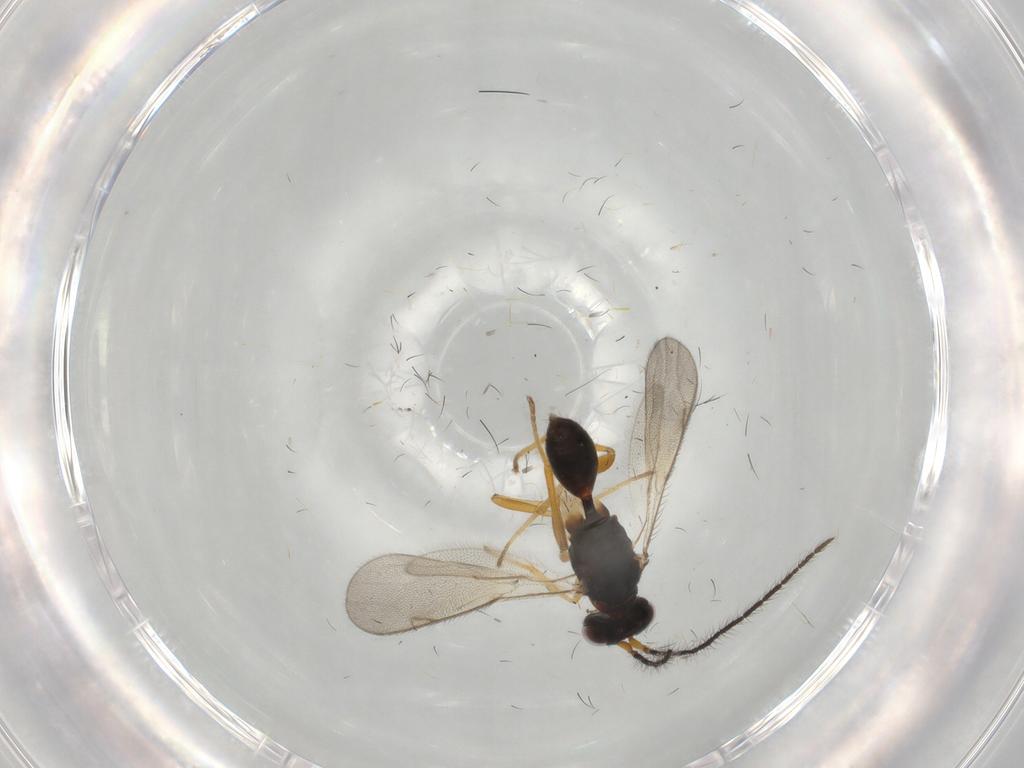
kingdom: Animalia
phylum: Arthropoda
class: Insecta
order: Hymenoptera
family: Diparidae
